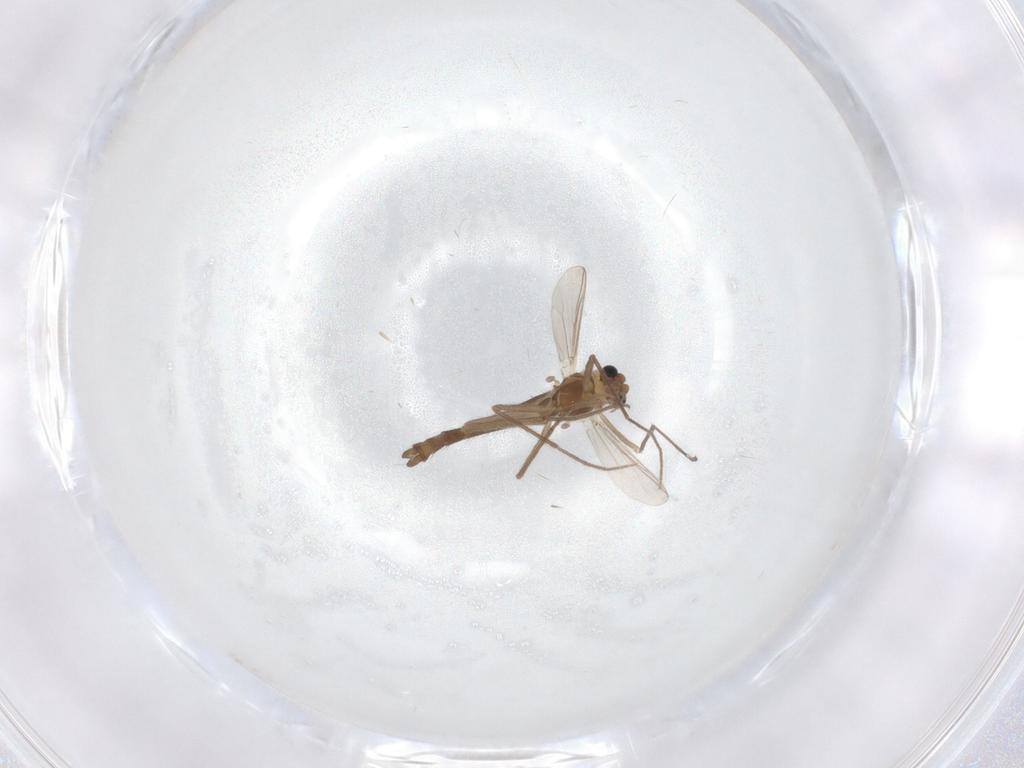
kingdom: Animalia
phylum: Arthropoda
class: Insecta
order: Diptera
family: Chironomidae
